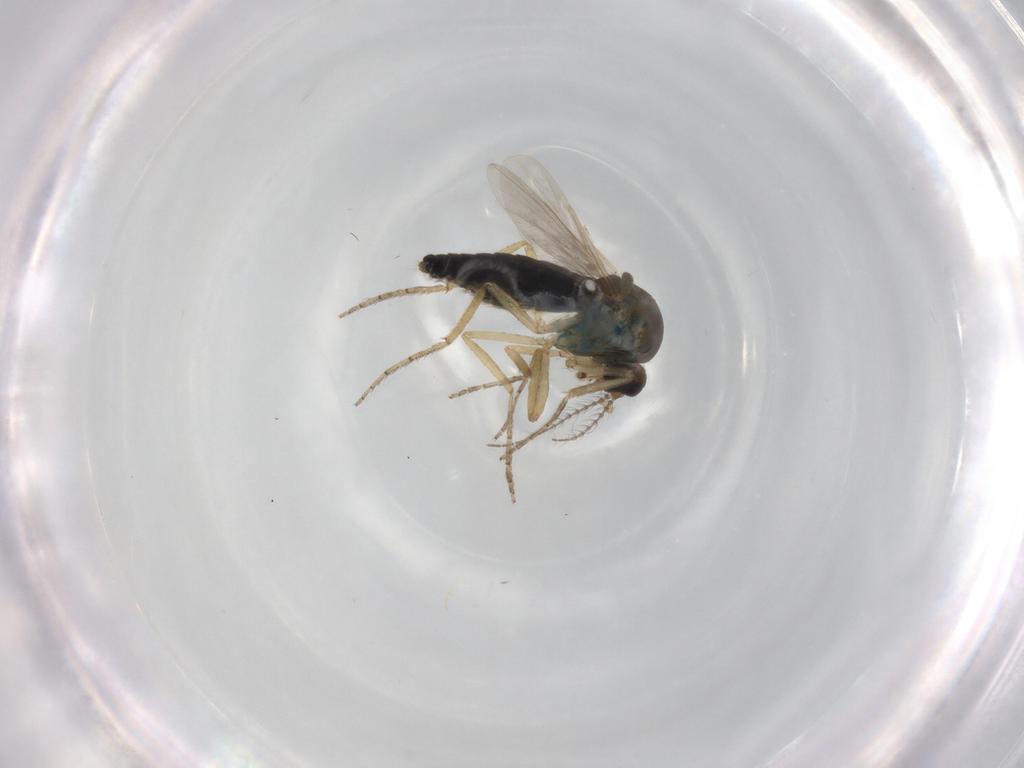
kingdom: Animalia
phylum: Arthropoda
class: Insecta
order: Diptera
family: Ceratopogonidae
